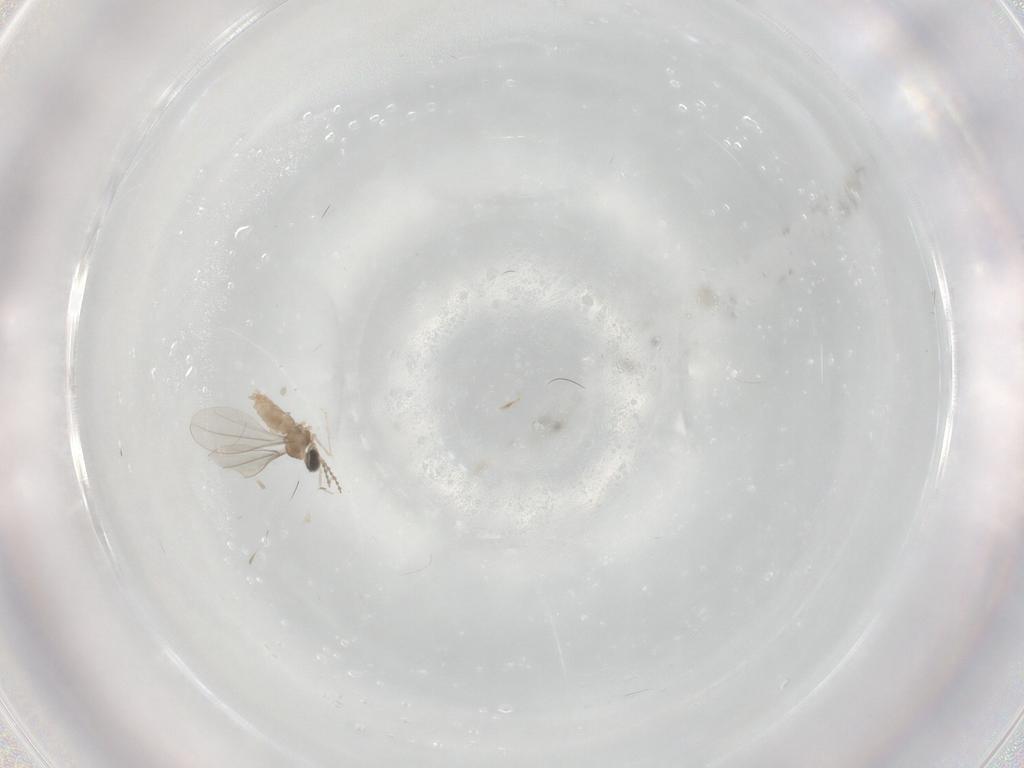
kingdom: Animalia
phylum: Arthropoda
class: Insecta
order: Diptera
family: Cecidomyiidae
